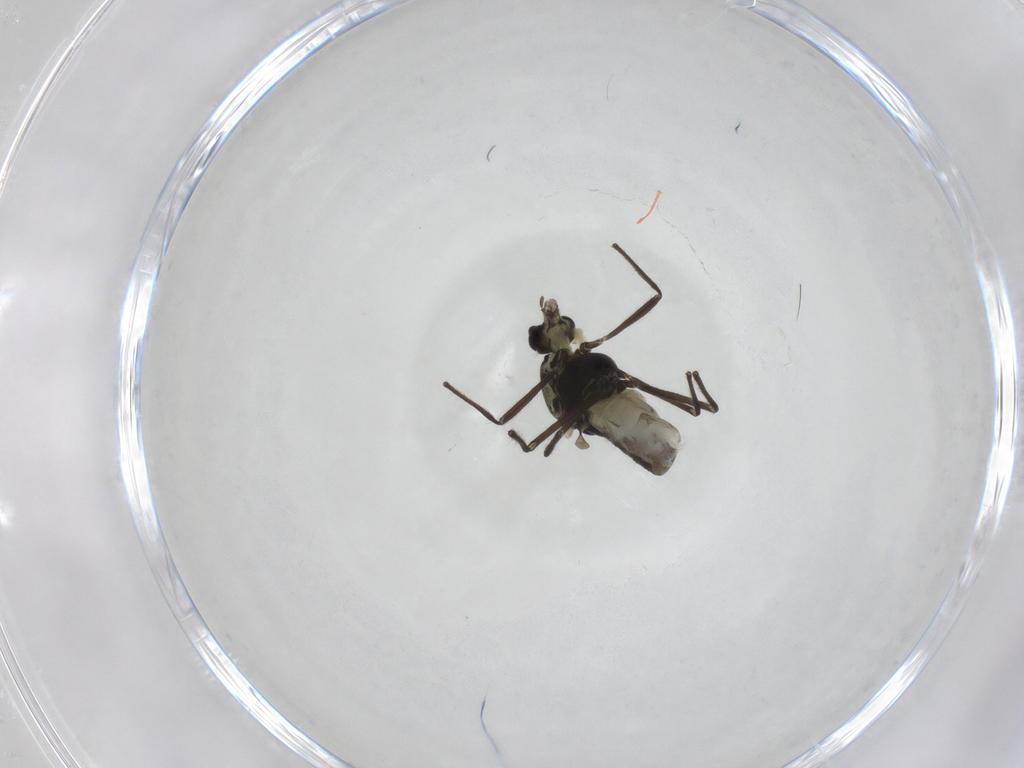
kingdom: Animalia
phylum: Arthropoda
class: Insecta
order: Diptera
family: Chironomidae
